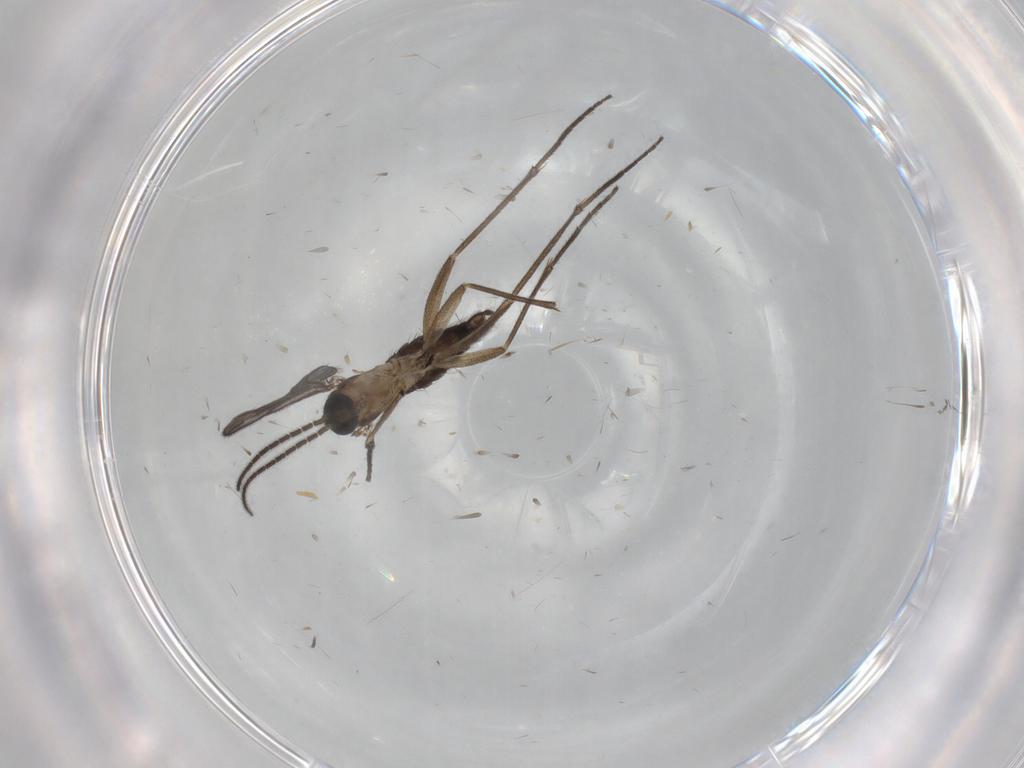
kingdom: Animalia
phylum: Arthropoda
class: Insecta
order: Diptera
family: Sciaridae
